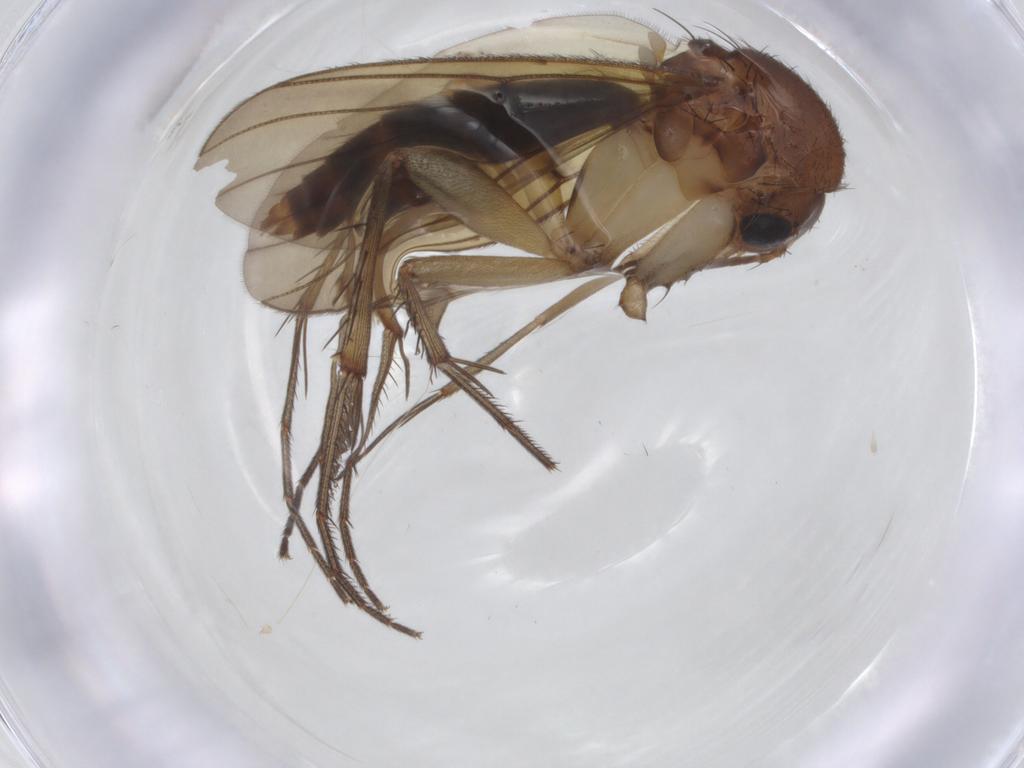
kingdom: Animalia
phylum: Arthropoda
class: Insecta
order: Diptera
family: Mycetophilidae
